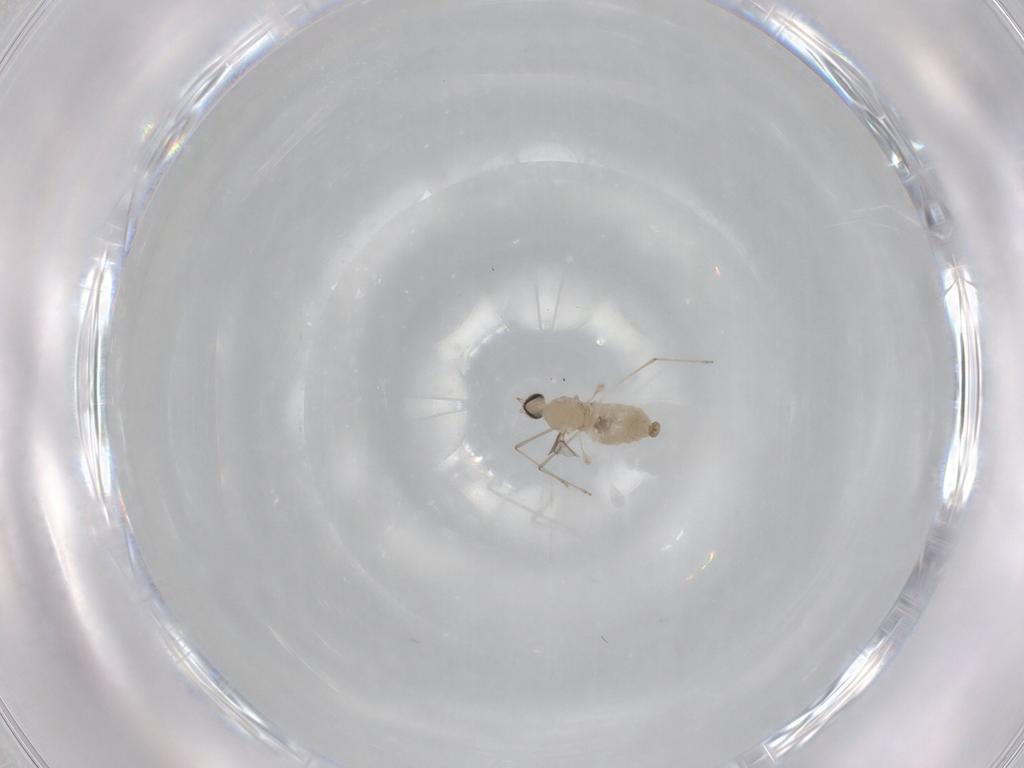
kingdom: Animalia
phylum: Arthropoda
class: Insecta
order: Diptera
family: Cecidomyiidae
